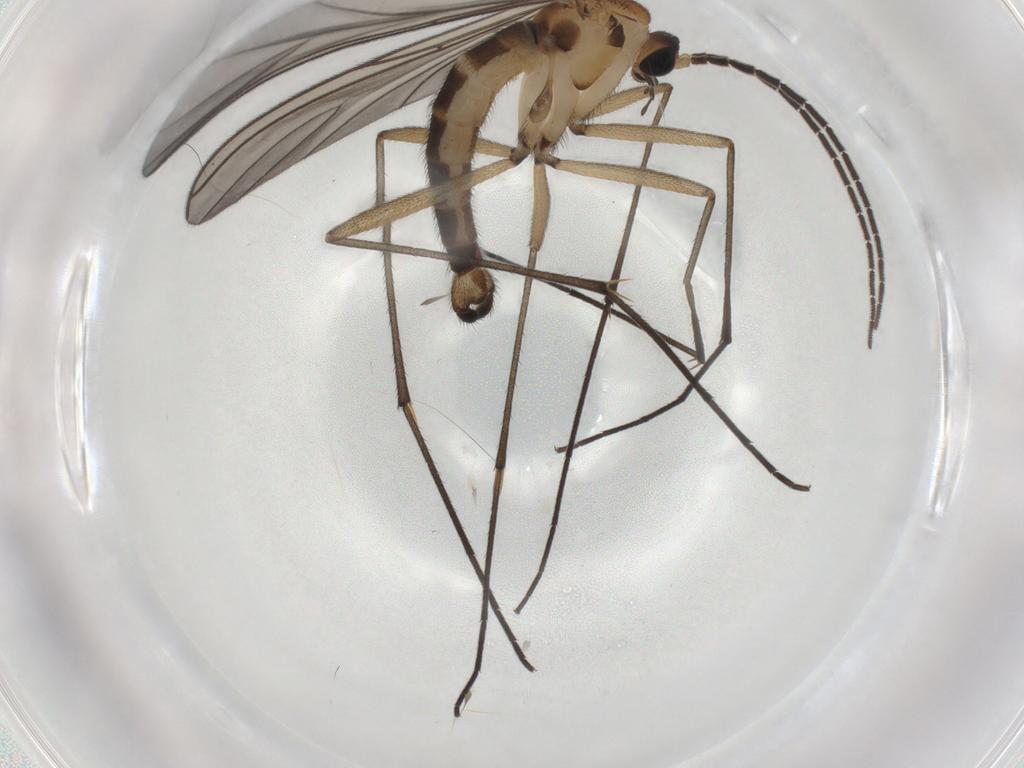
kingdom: Animalia
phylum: Arthropoda
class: Insecta
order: Diptera
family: Sciaridae
